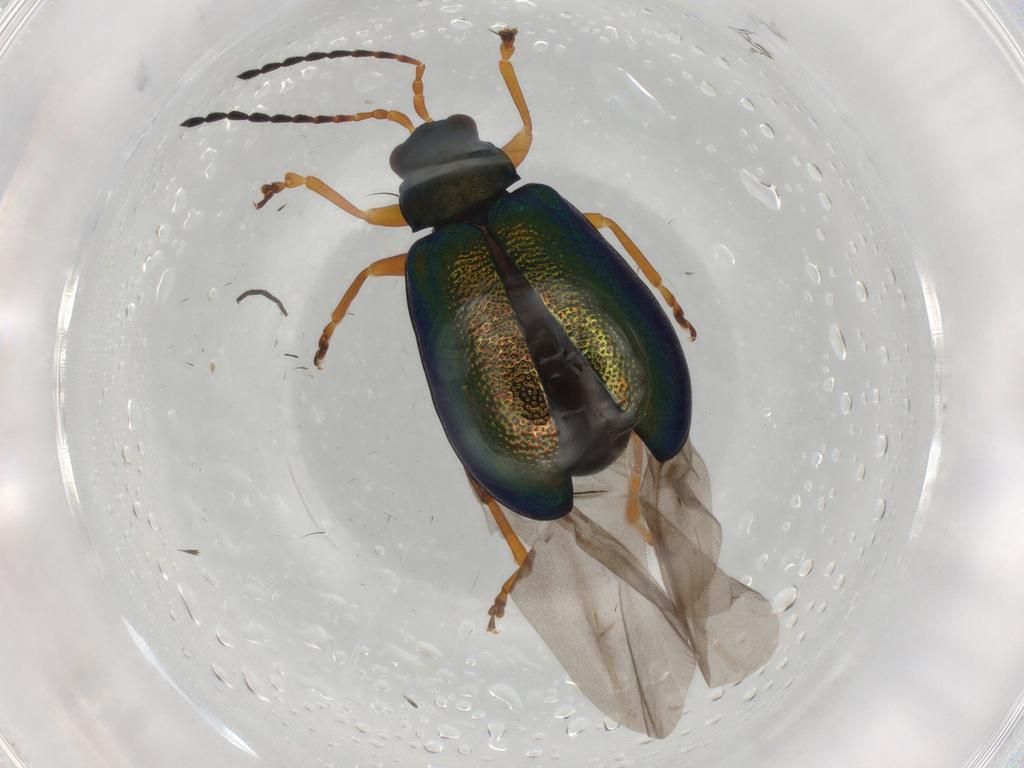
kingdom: Animalia
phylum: Arthropoda
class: Insecta
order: Coleoptera
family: Chrysomelidae
